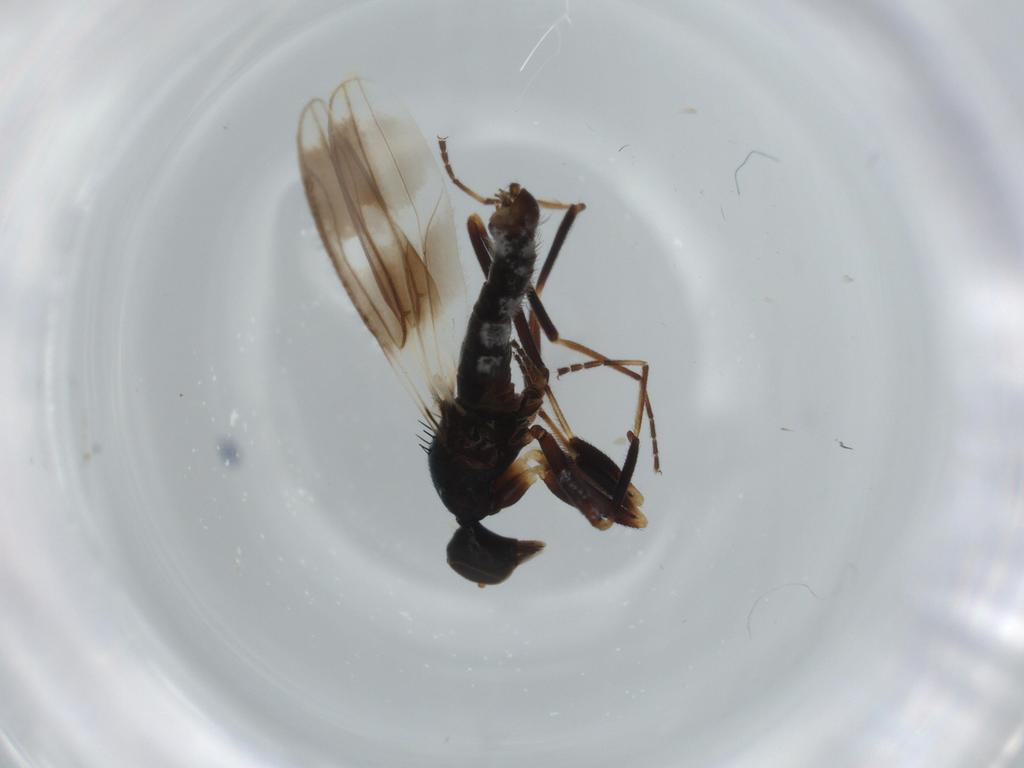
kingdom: Animalia
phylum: Arthropoda
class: Insecta
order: Diptera
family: Hybotidae
